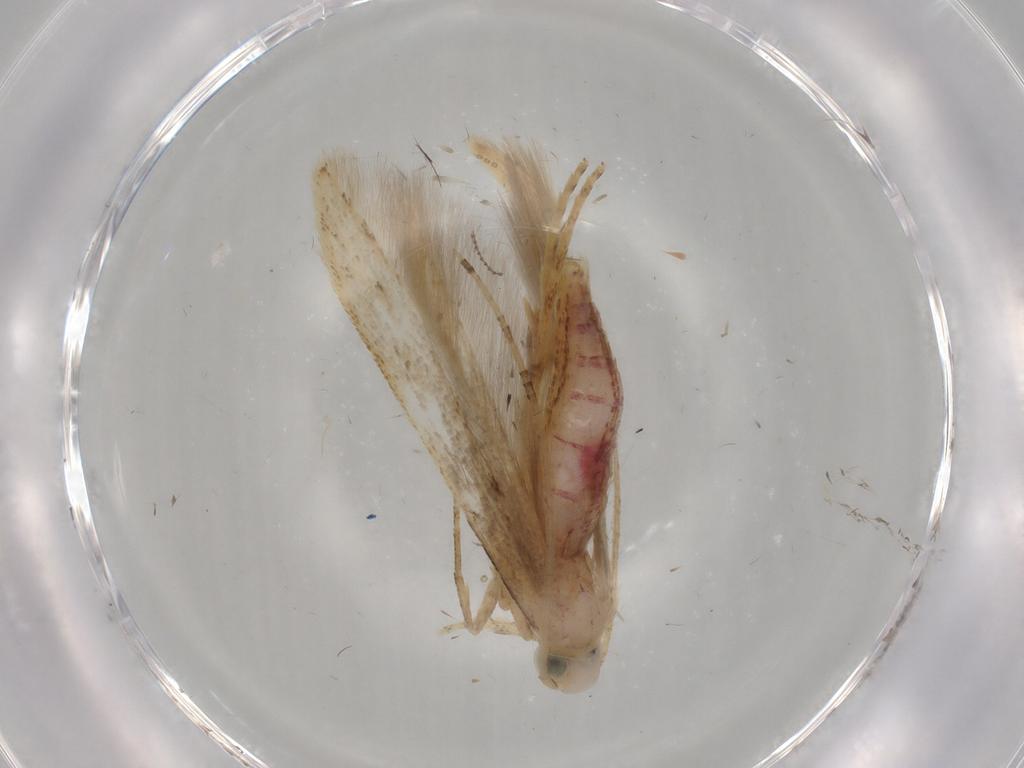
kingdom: Animalia
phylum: Arthropoda
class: Insecta
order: Lepidoptera
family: Batrachedridae
